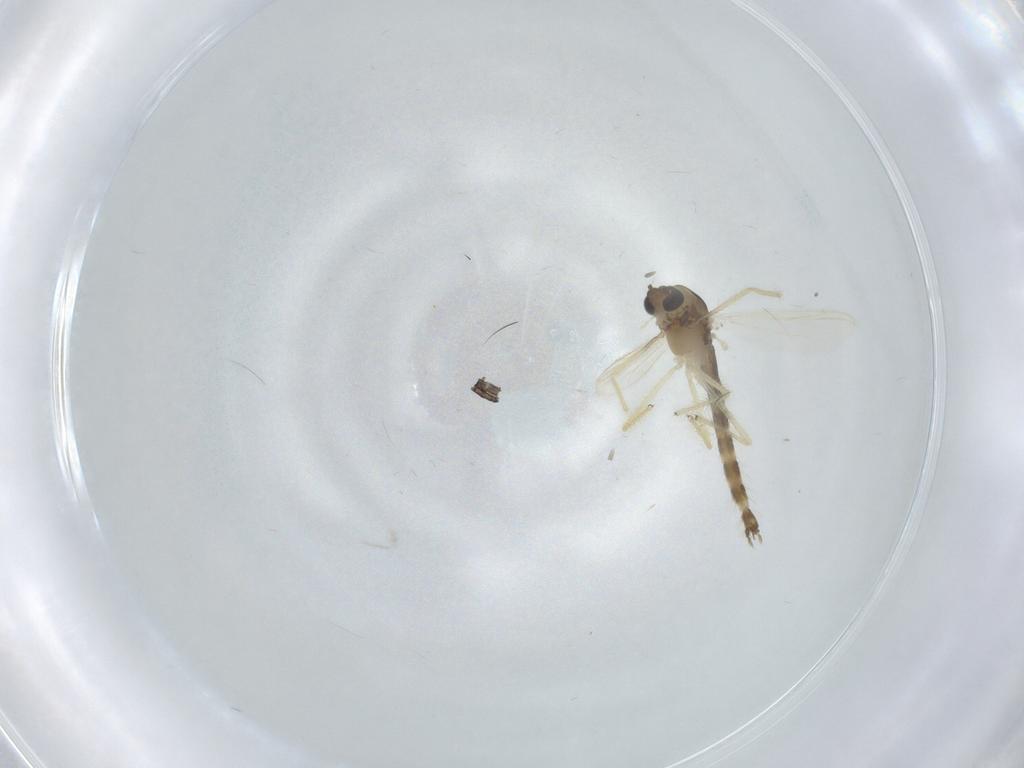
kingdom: Animalia
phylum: Arthropoda
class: Insecta
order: Diptera
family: Chironomidae
